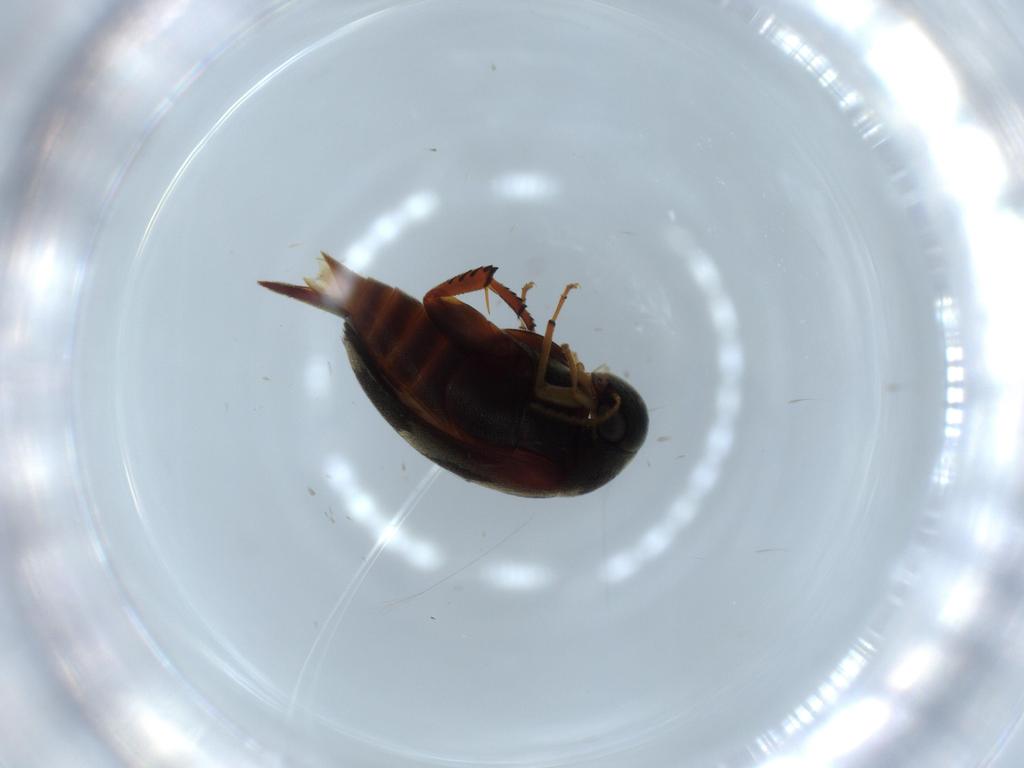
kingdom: Animalia
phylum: Arthropoda
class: Insecta
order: Coleoptera
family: Mordellidae
